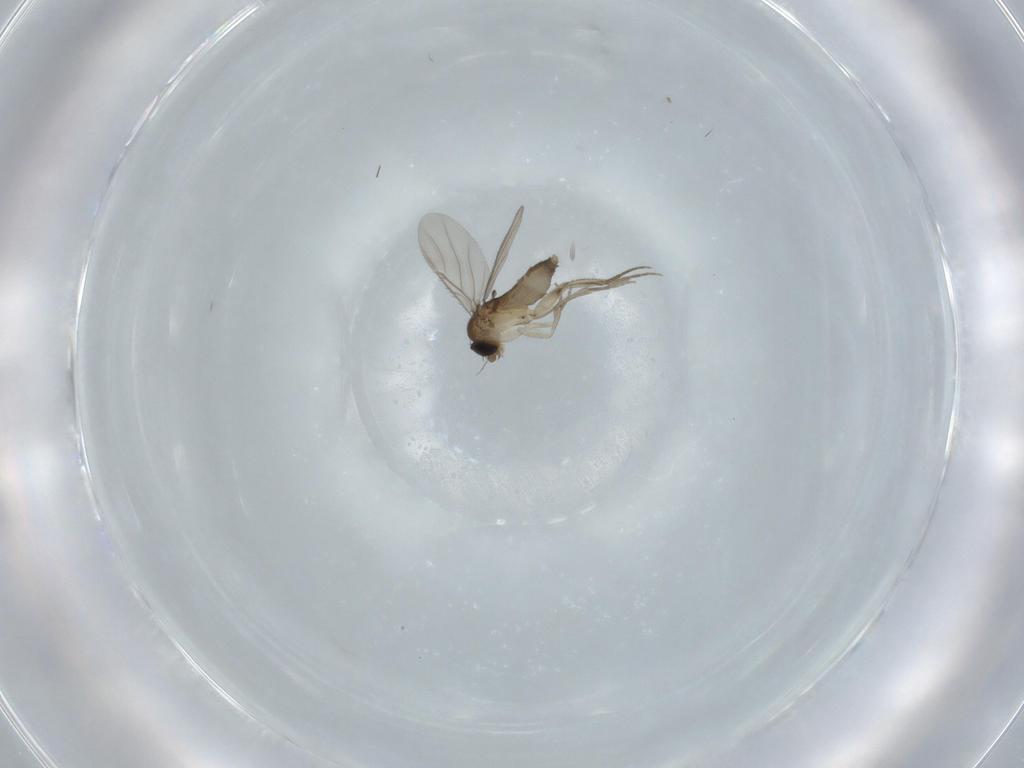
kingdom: Animalia
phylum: Arthropoda
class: Insecta
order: Diptera
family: Phoridae
